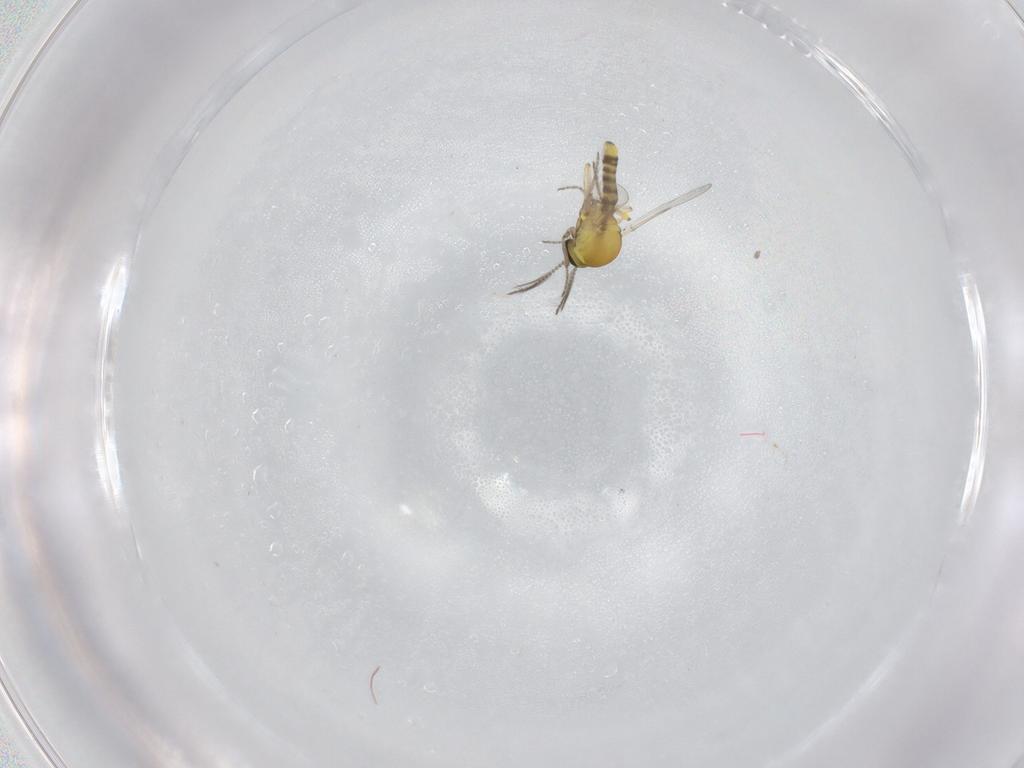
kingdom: Animalia
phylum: Arthropoda
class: Insecta
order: Diptera
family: Ceratopogonidae
